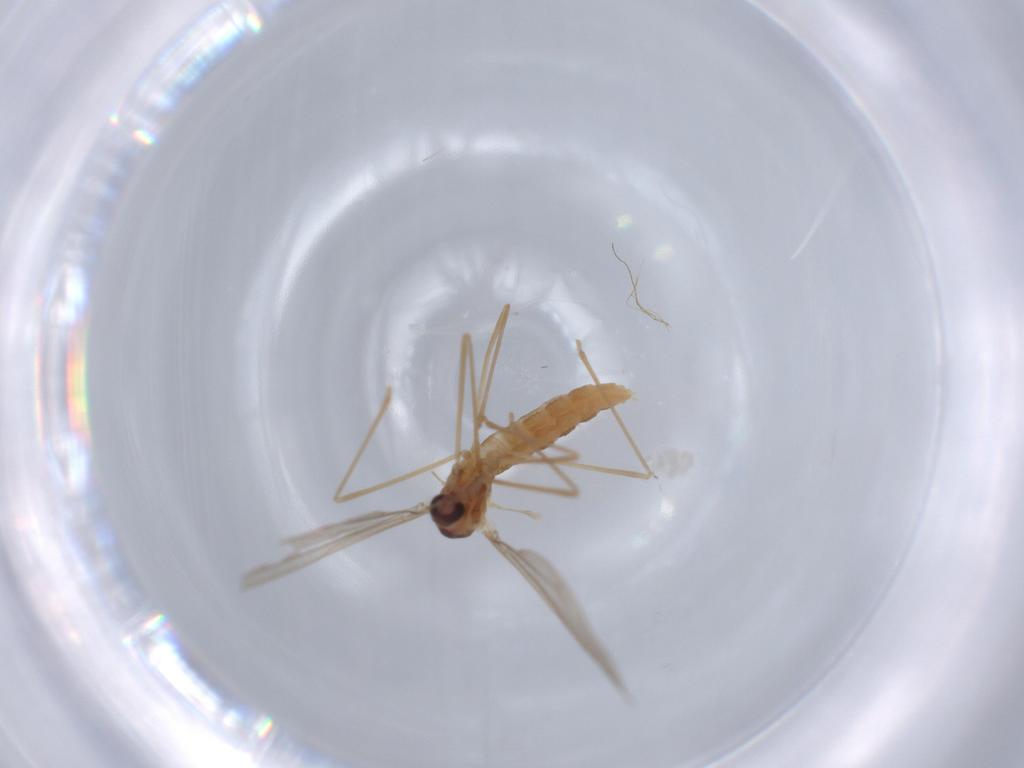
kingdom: Animalia
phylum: Arthropoda
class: Insecta
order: Diptera
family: Sciaridae
